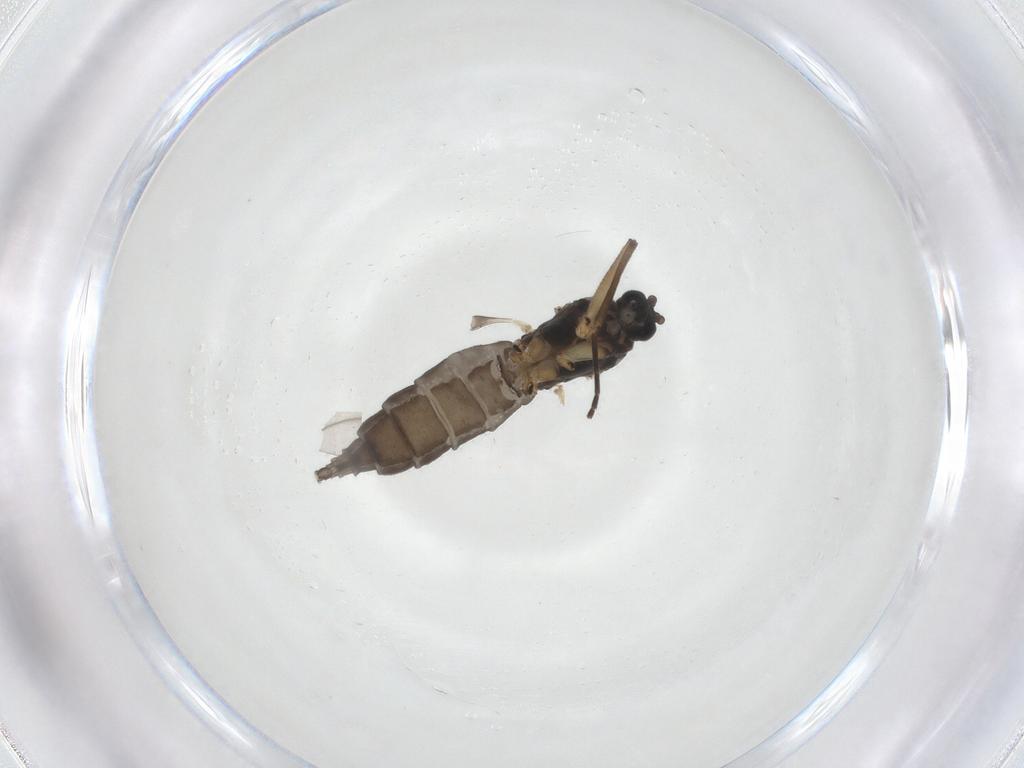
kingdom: Animalia
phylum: Arthropoda
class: Insecta
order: Diptera
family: Sciaridae
